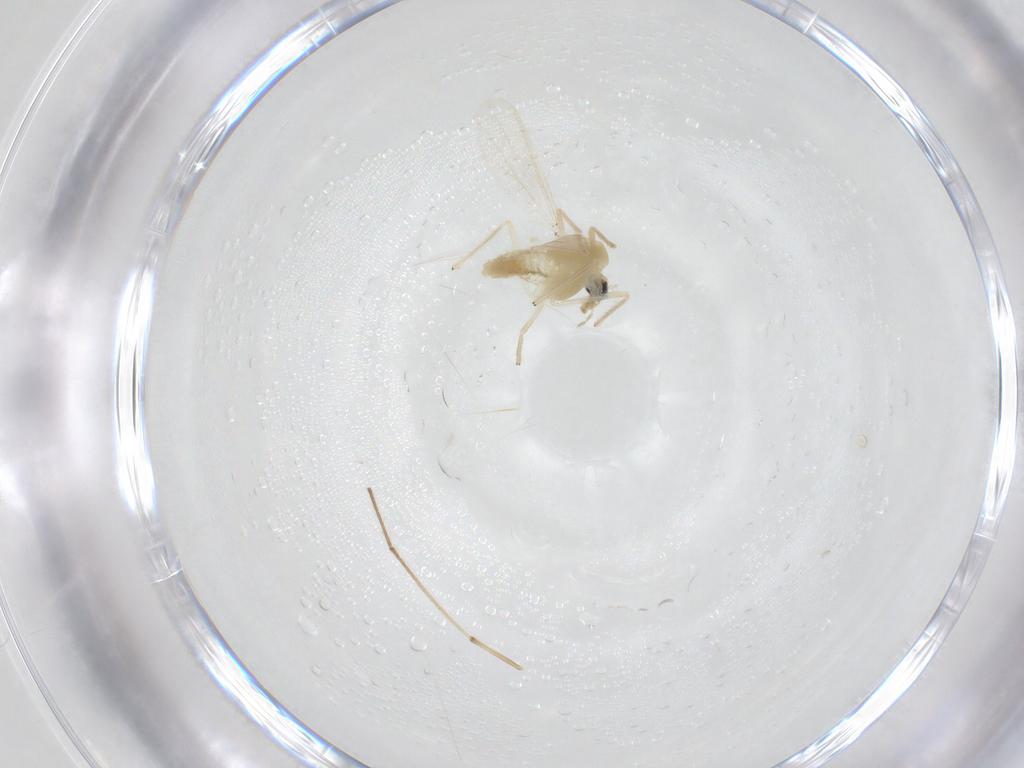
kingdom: Animalia
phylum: Arthropoda
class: Insecta
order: Diptera
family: Chironomidae
